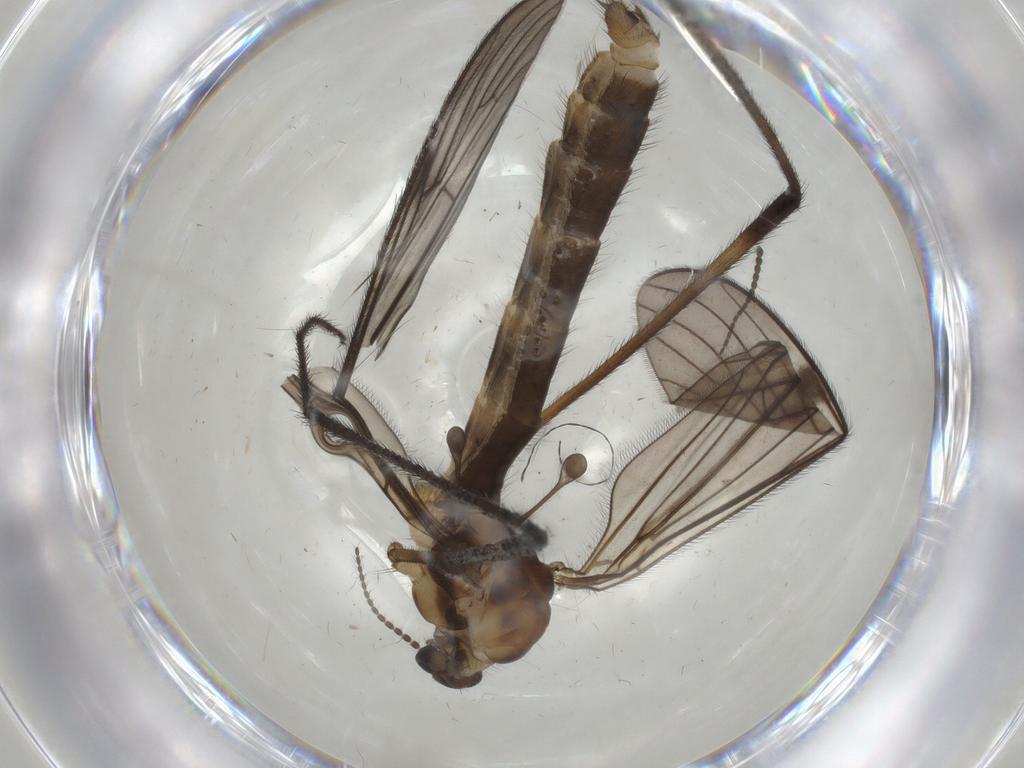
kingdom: Animalia
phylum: Arthropoda
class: Insecta
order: Diptera
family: Limoniidae
